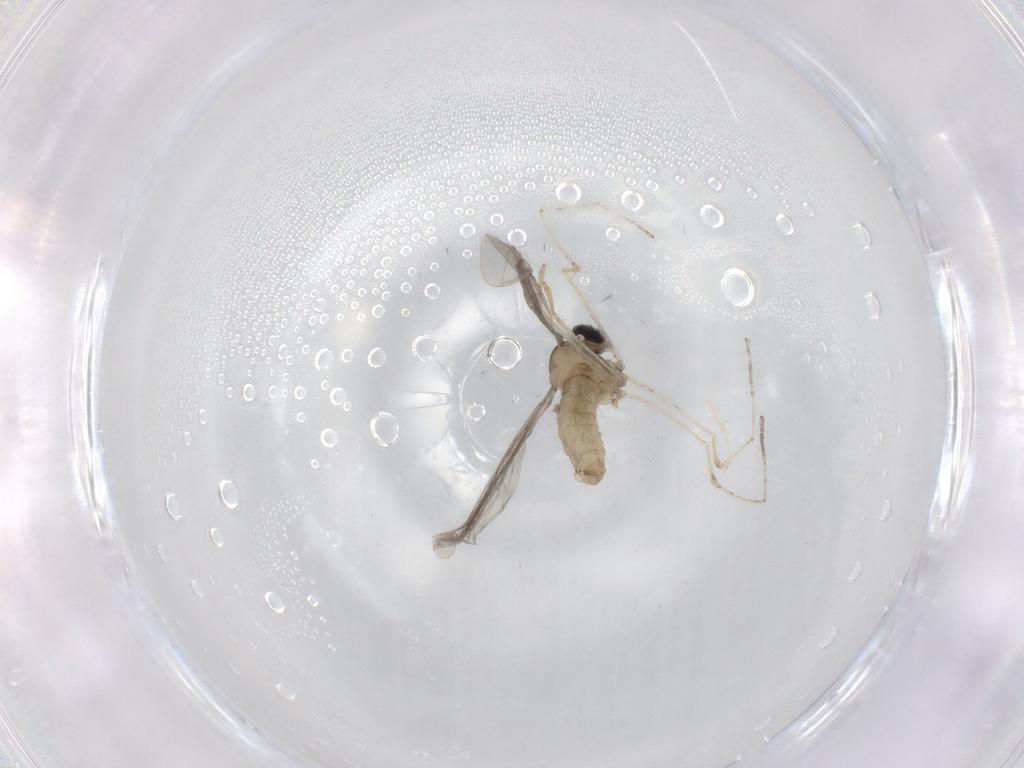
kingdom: Animalia
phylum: Arthropoda
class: Insecta
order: Diptera
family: Cecidomyiidae
